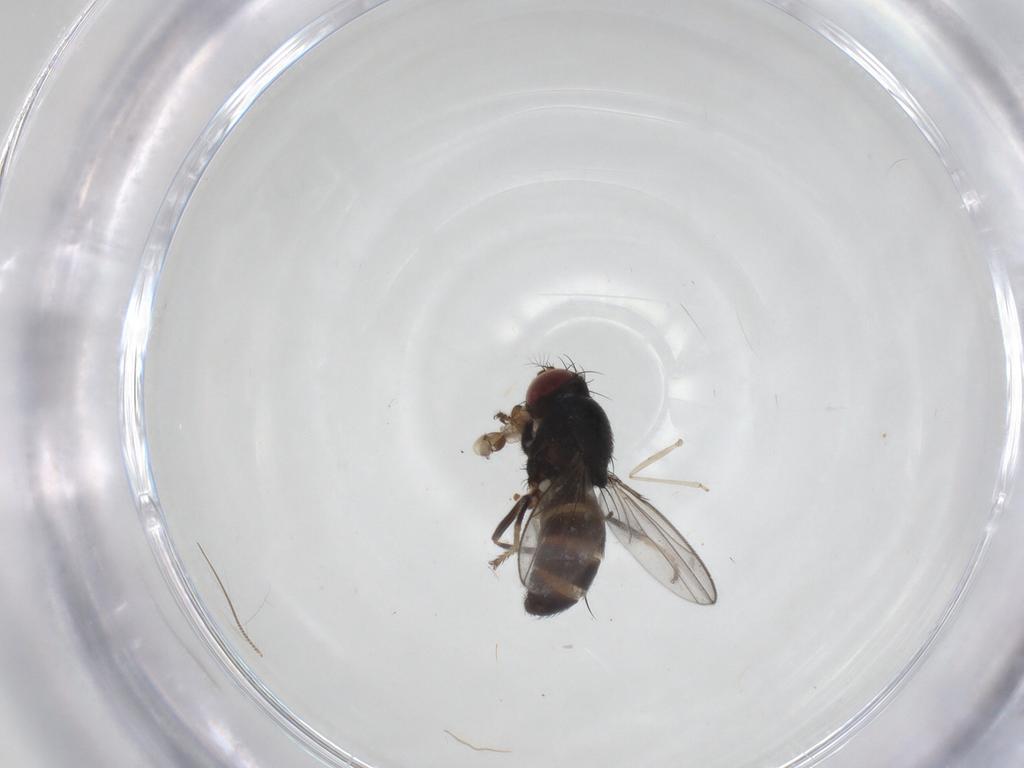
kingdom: Animalia
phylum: Arthropoda
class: Insecta
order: Diptera
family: Ephydridae
